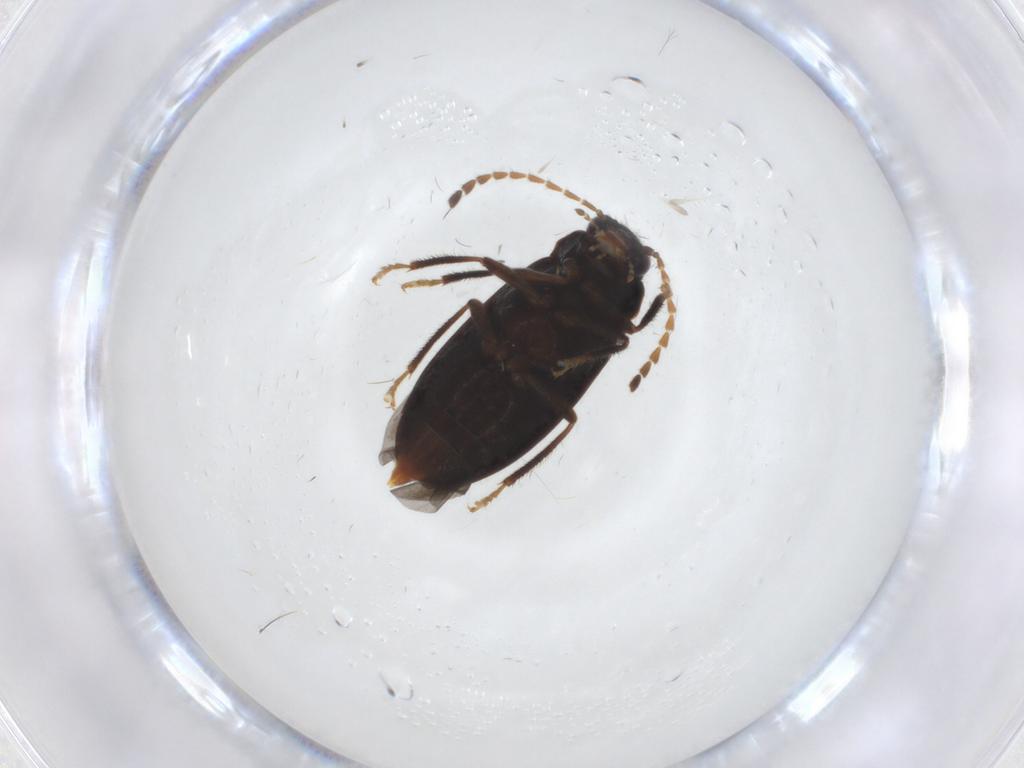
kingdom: Animalia
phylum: Arthropoda
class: Insecta
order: Coleoptera
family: Ptilodactylidae
